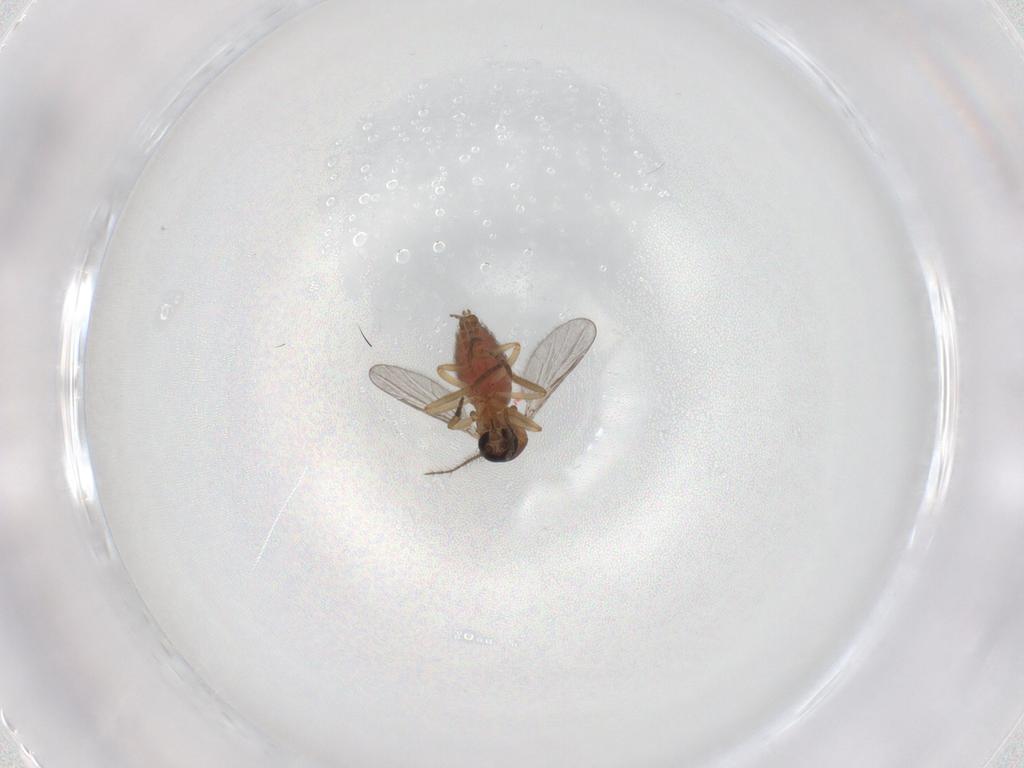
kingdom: Animalia
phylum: Arthropoda
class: Insecta
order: Diptera
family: Ceratopogonidae
